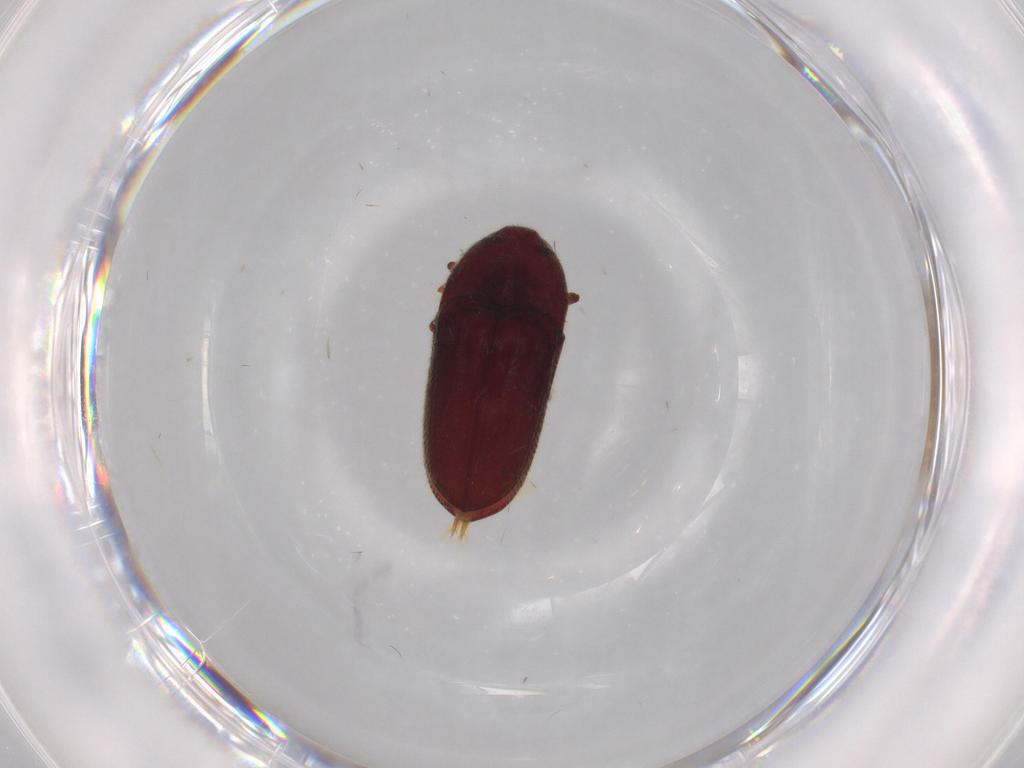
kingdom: Animalia
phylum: Arthropoda
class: Insecta
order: Coleoptera
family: Throscidae
